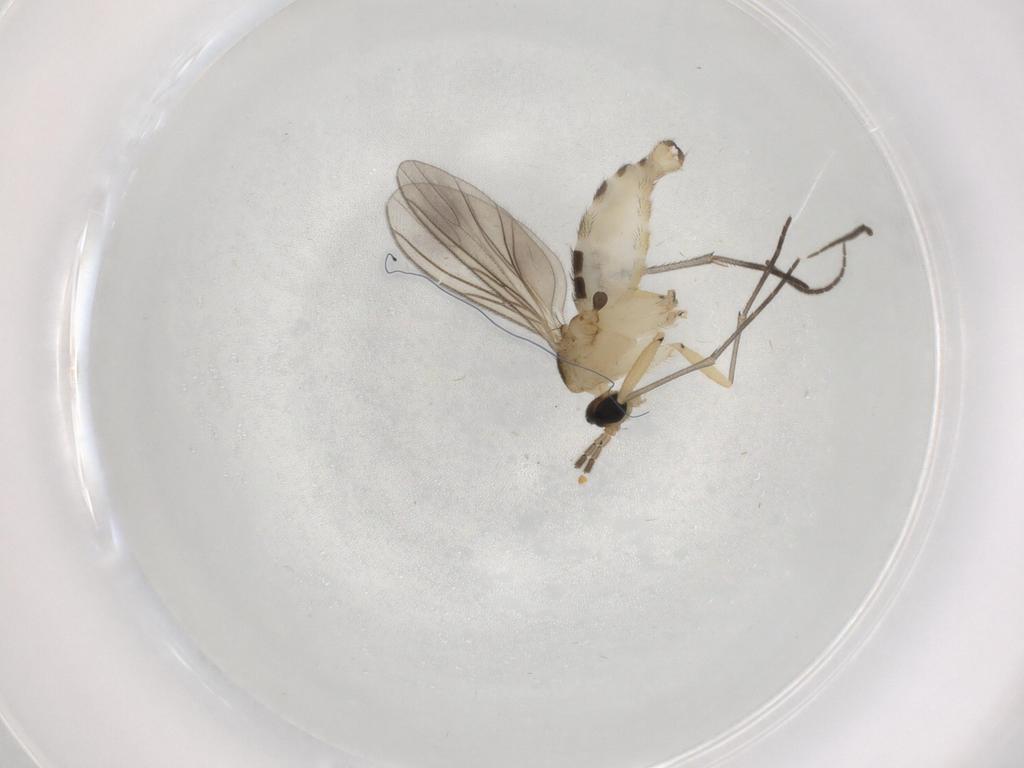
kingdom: Animalia
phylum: Arthropoda
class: Insecta
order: Diptera
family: Sciaridae
